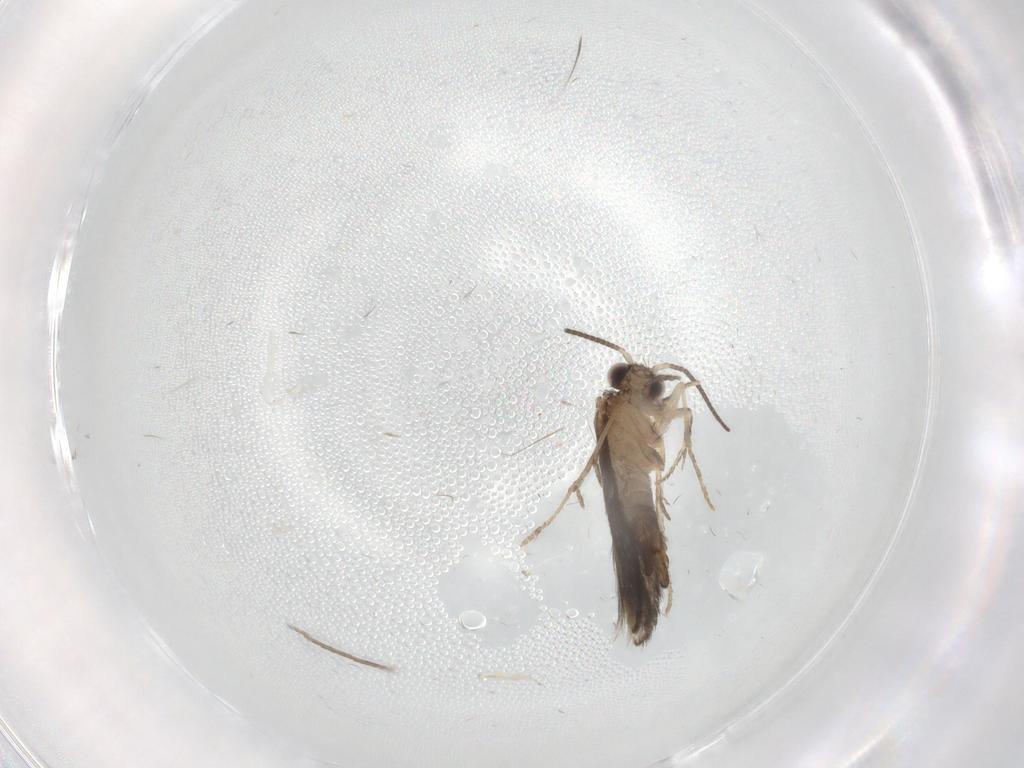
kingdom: Animalia
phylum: Arthropoda
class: Insecta
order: Trichoptera
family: Helicopsychidae
